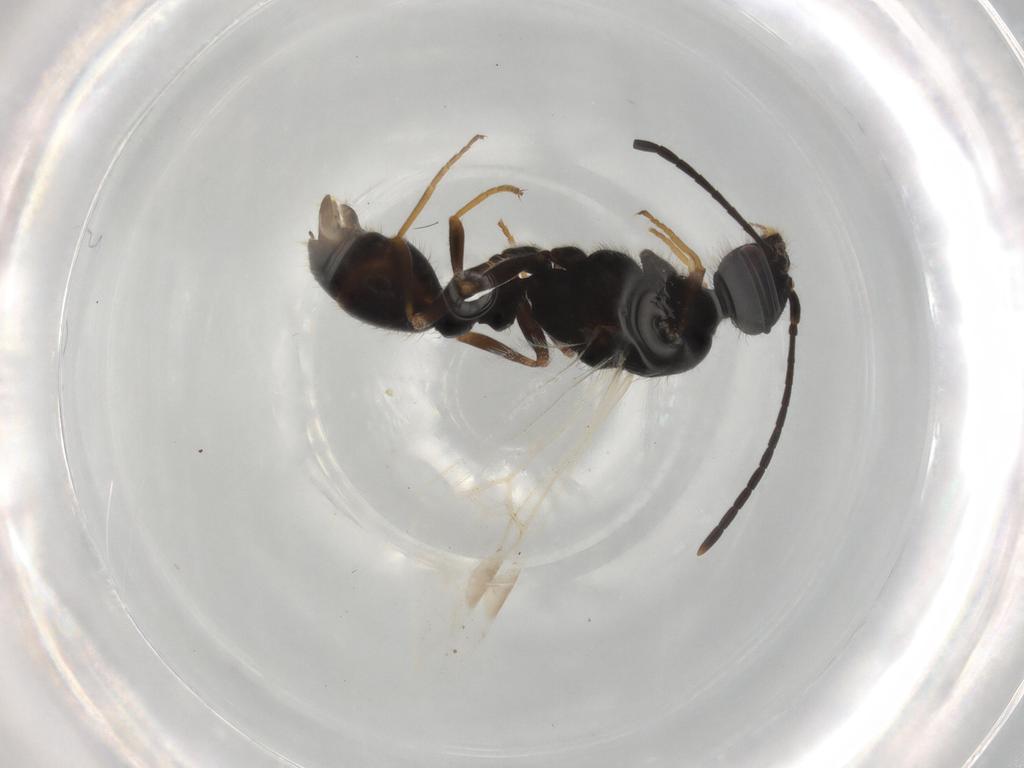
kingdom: Animalia
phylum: Arthropoda
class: Insecta
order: Hymenoptera
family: Formicidae
